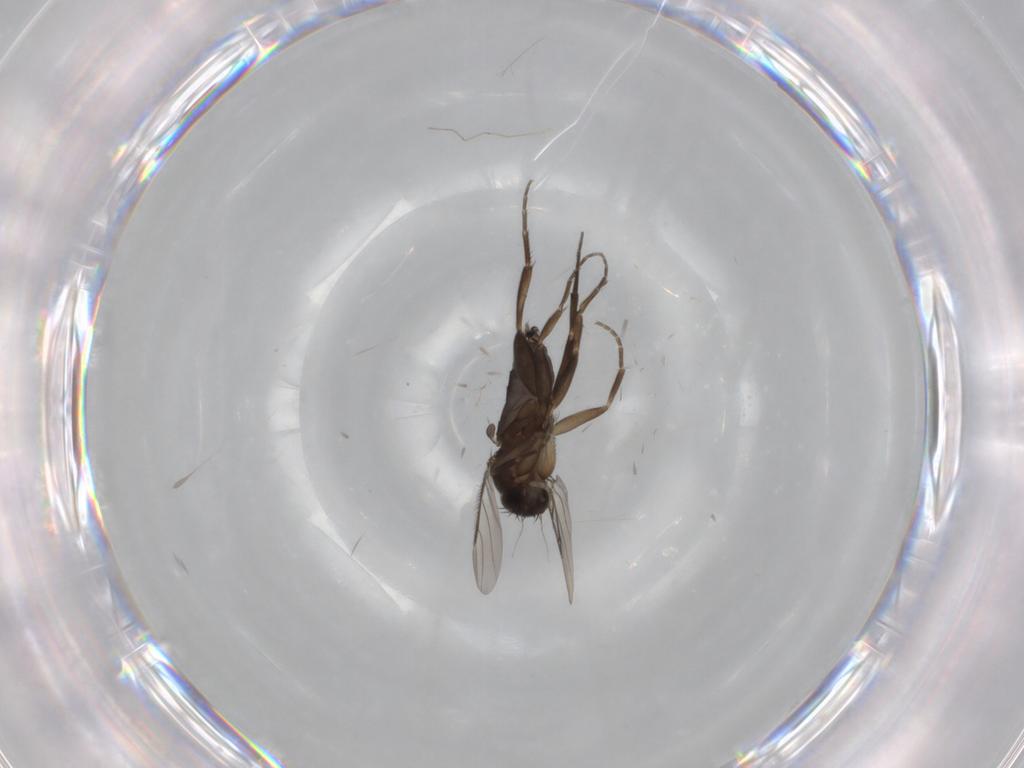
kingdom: Animalia
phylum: Arthropoda
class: Insecta
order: Diptera
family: Phoridae
